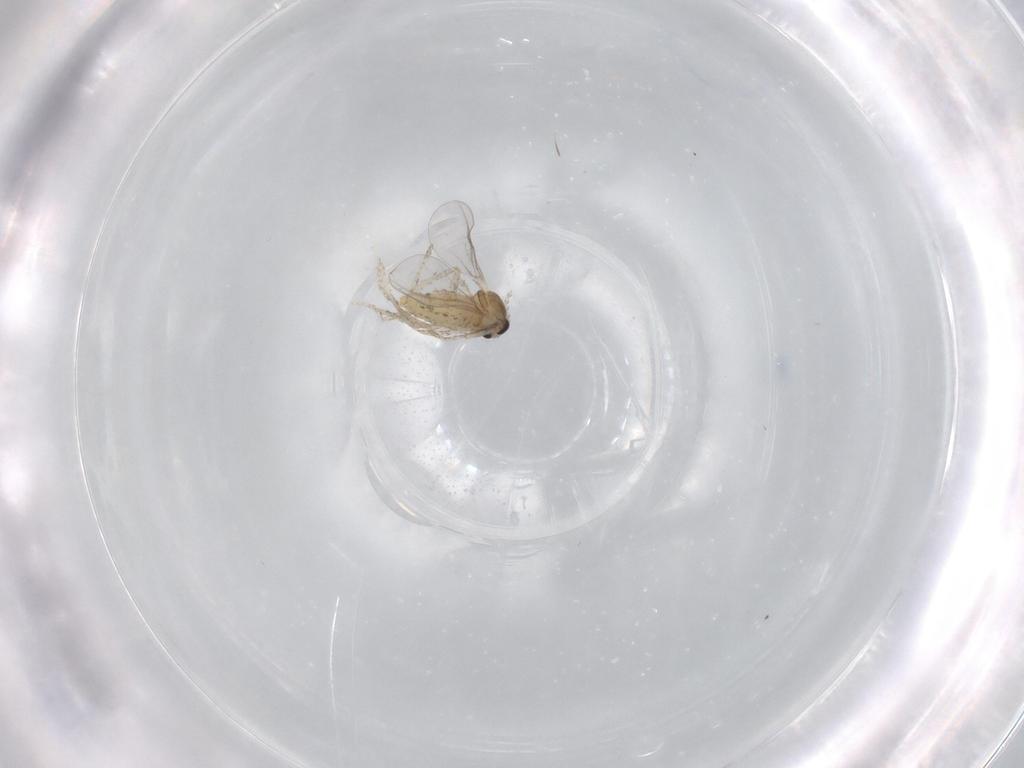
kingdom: Animalia
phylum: Arthropoda
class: Insecta
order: Diptera
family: Cecidomyiidae
